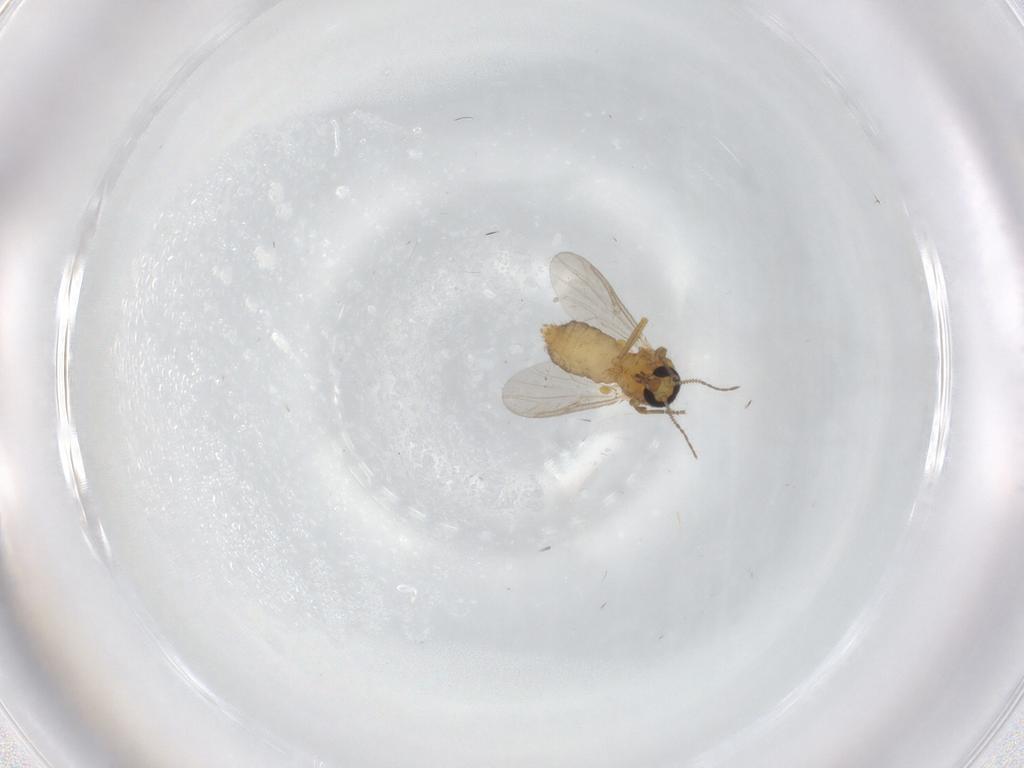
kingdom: Animalia
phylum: Arthropoda
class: Insecta
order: Diptera
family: Ceratopogonidae
